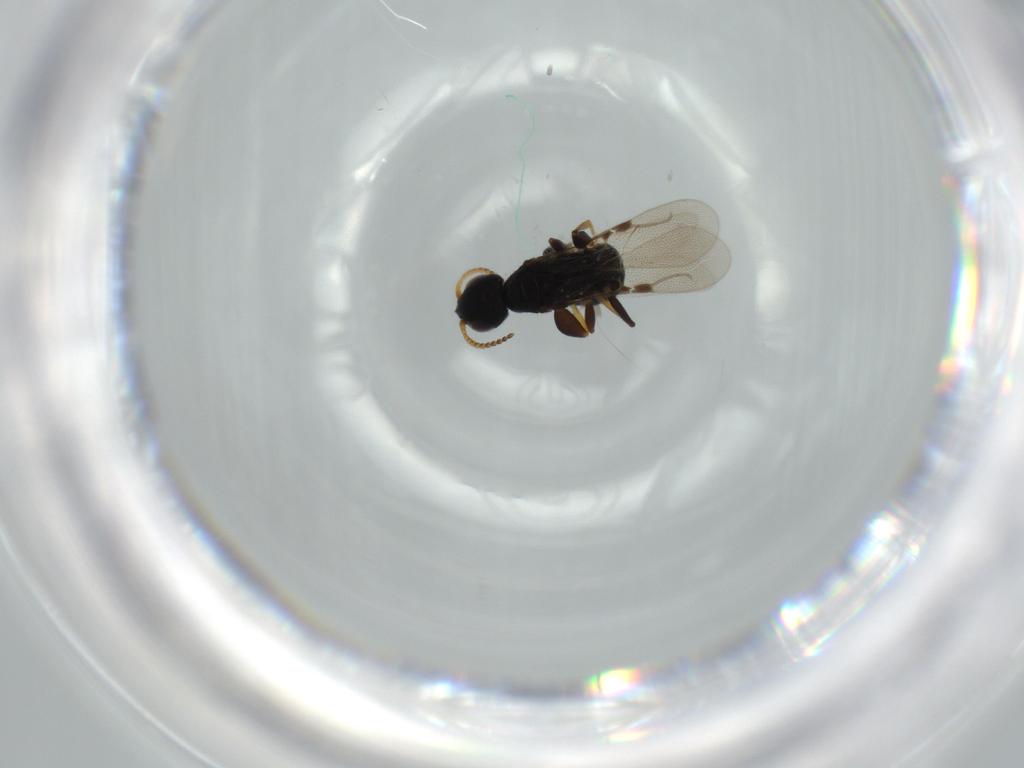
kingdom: Animalia
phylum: Arthropoda
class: Insecta
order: Hymenoptera
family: Bethylidae
